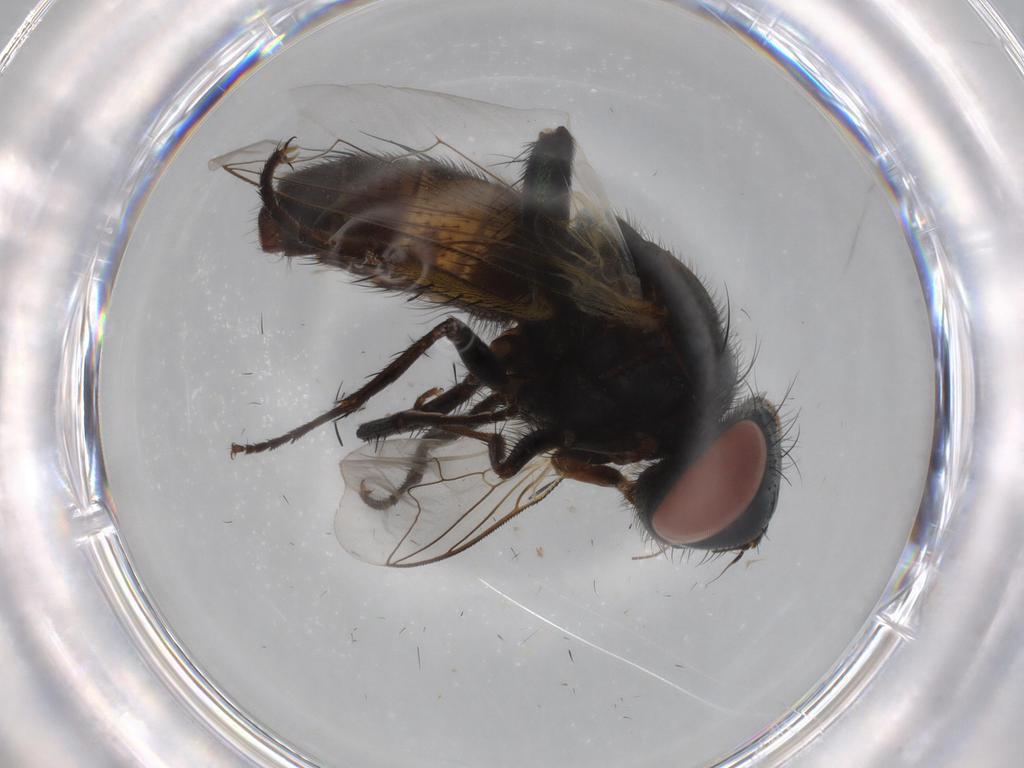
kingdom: Animalia
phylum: Arthropoda
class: Insecta
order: Diptera
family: Sarcophagidae
